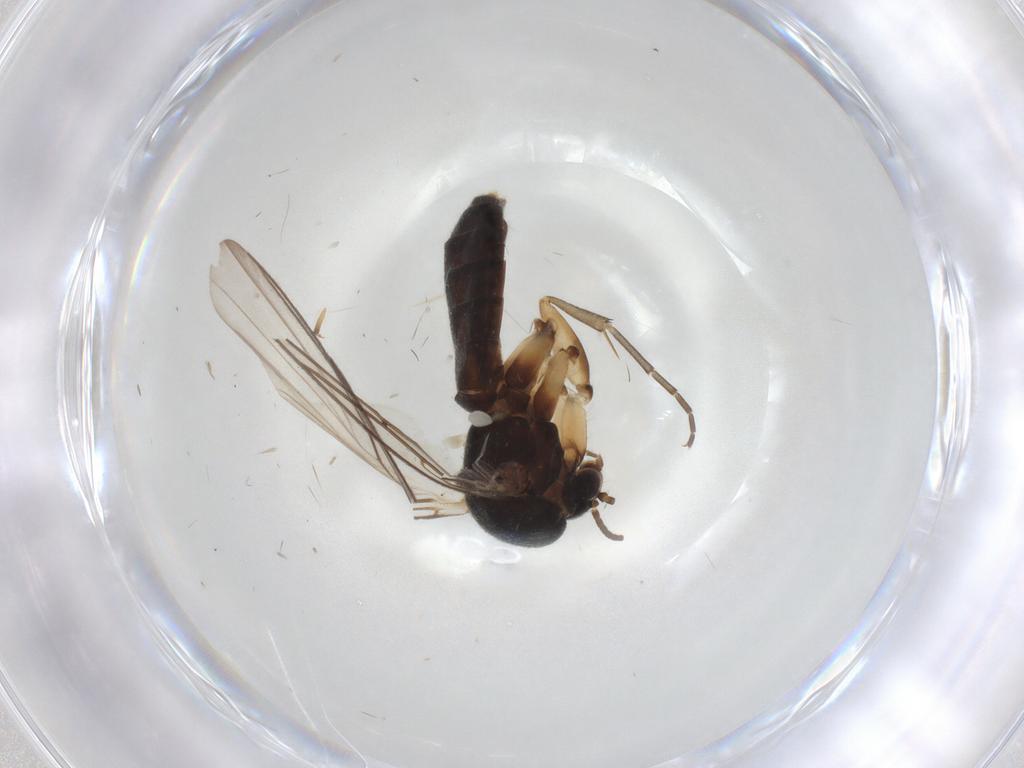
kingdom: Animalia
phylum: Arthropoda
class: Insecta
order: Diptera
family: Mycetophilidae
